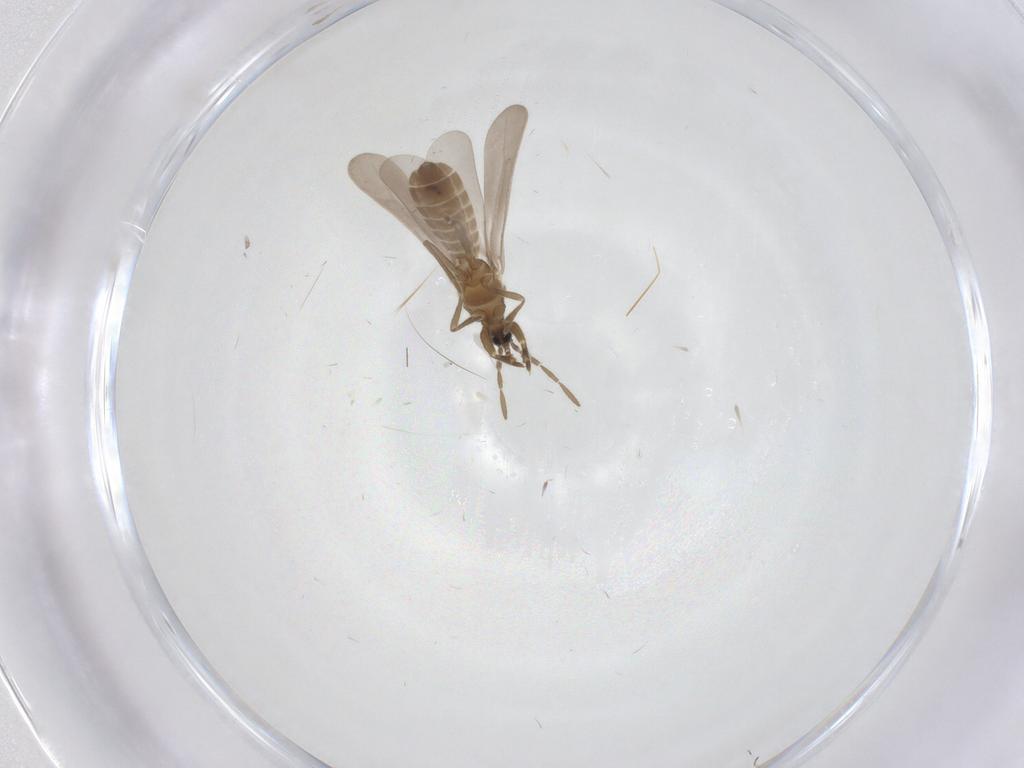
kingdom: Animalia
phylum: Arthropoda
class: Insecta
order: Hemiptera
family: Enicocephalidae
